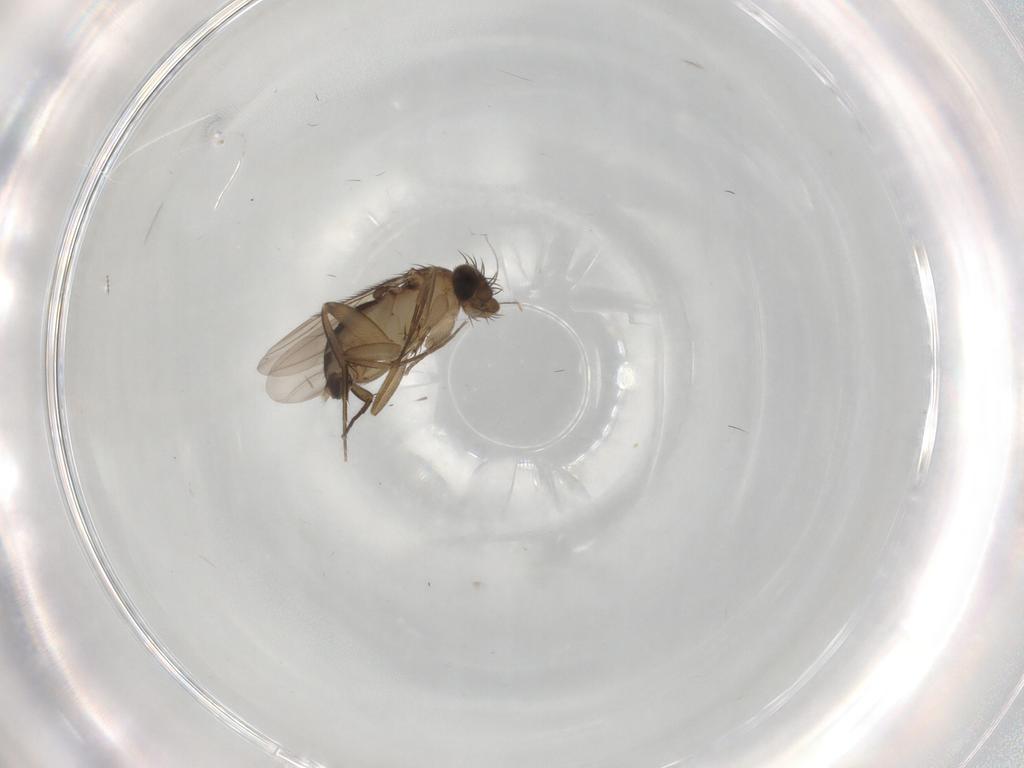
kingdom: Animalia
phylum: Arthropoda
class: Insecta
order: Diptera
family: Phoridae
